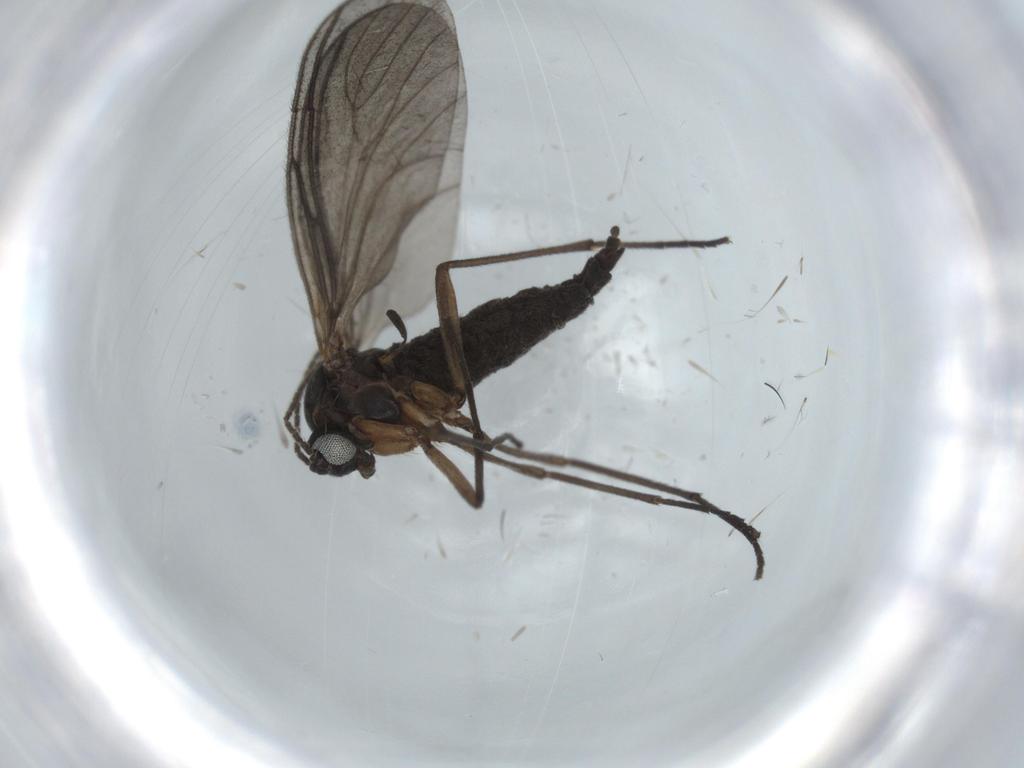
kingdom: Animalia
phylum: Arthropoda
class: Insecta
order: Diptera
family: Sciaridae
